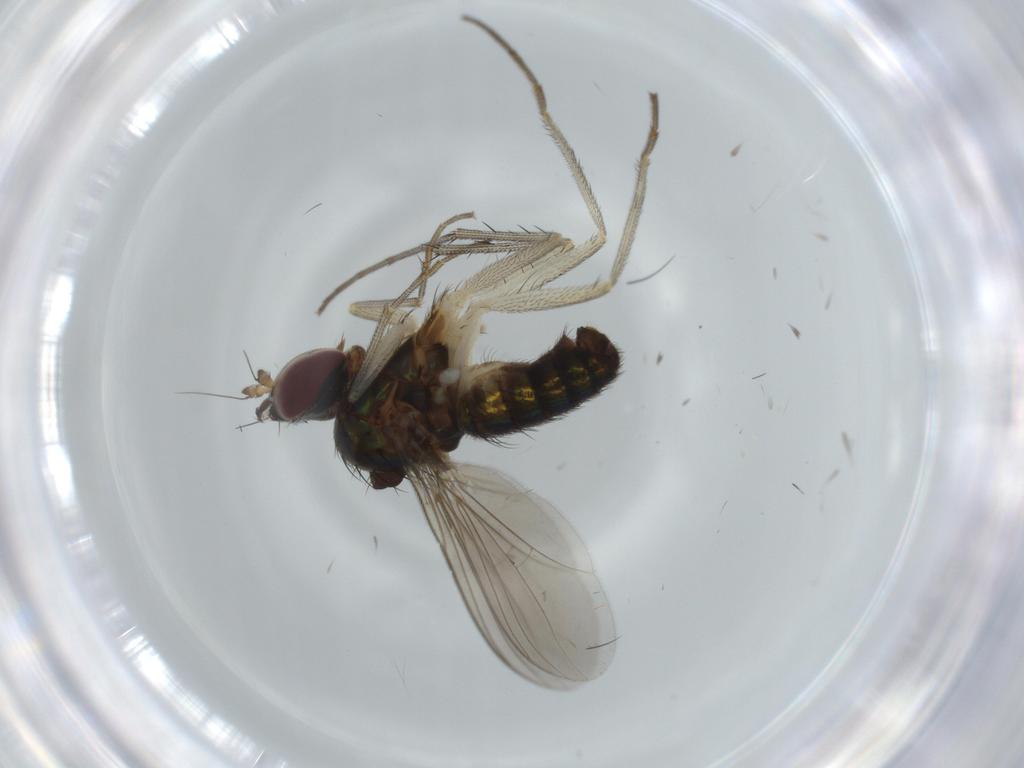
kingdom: Animalia
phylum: Arthropoda
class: Insecta
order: Diptera
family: Dolichopodidae
